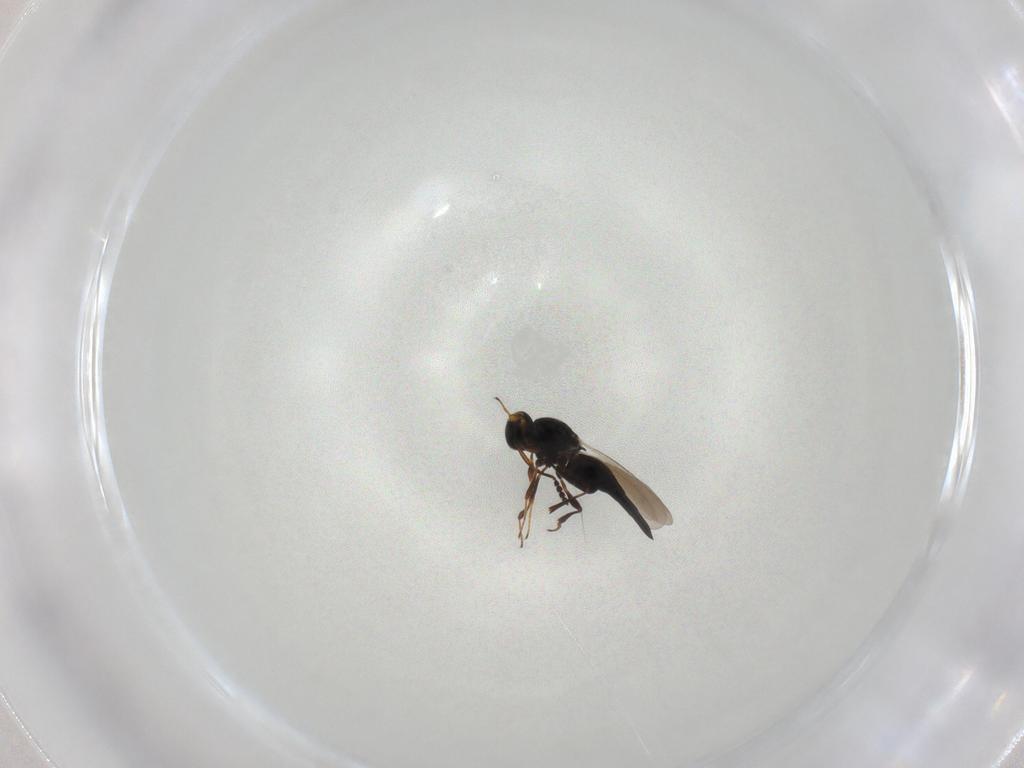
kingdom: Animalia
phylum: Arthropoda
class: Insecta
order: Hymenoptera
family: Platygastridae
